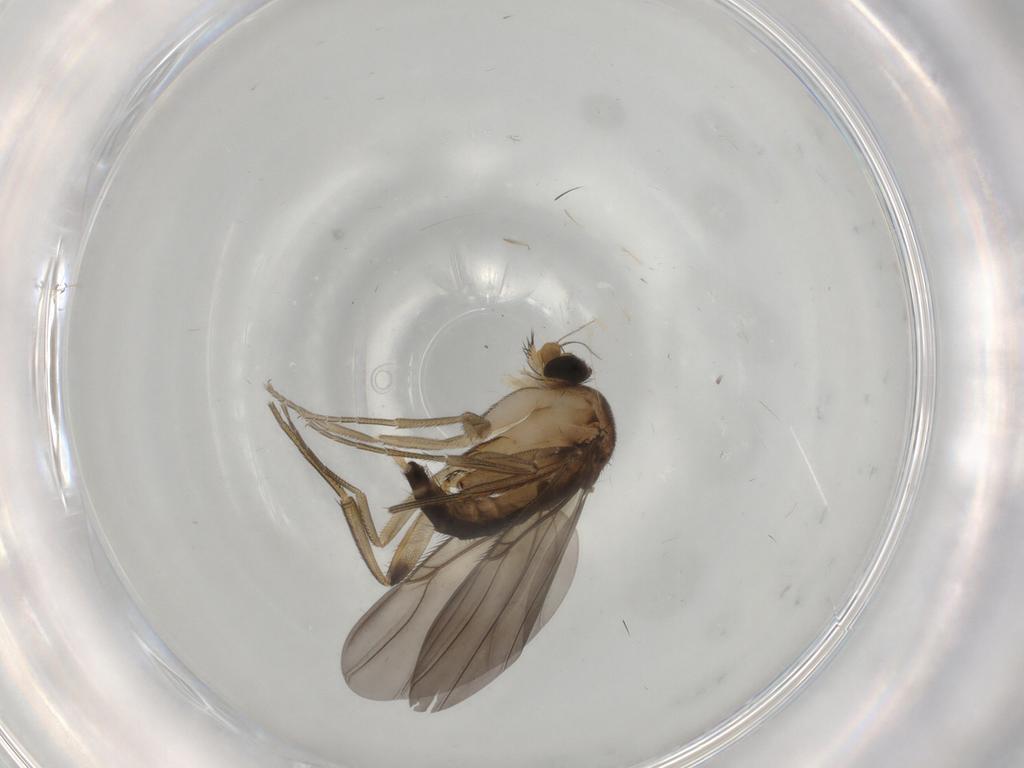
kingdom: Animalia
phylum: Arthropoda
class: Insecta
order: Diptera
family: Phoridae
